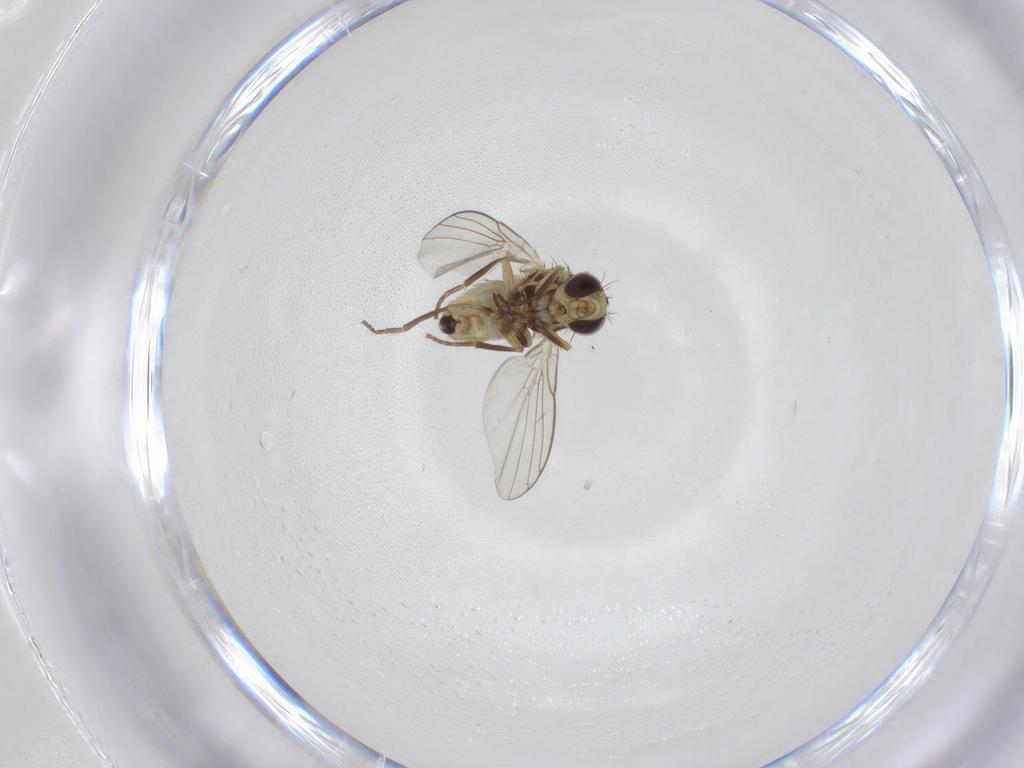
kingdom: Animalia
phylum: Arthropoda
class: Insecta
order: Diptera
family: Agromyzidae
